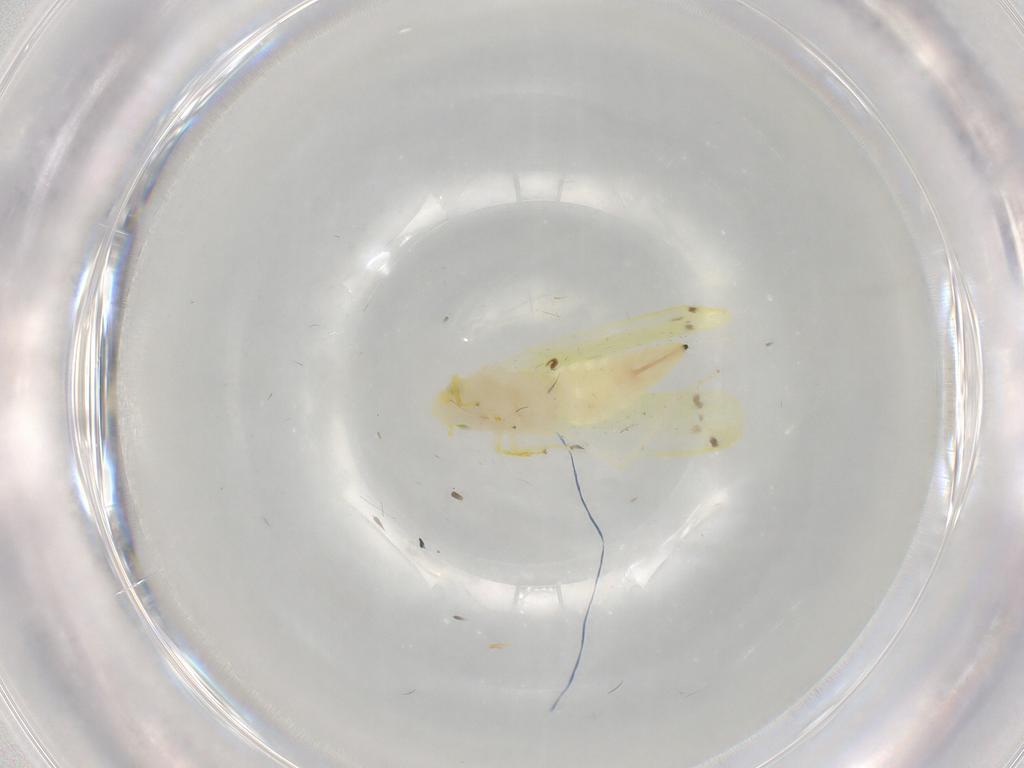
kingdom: Animalia
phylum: Arthropoda
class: Insecta
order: Hemiptera
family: Cicadellidae
